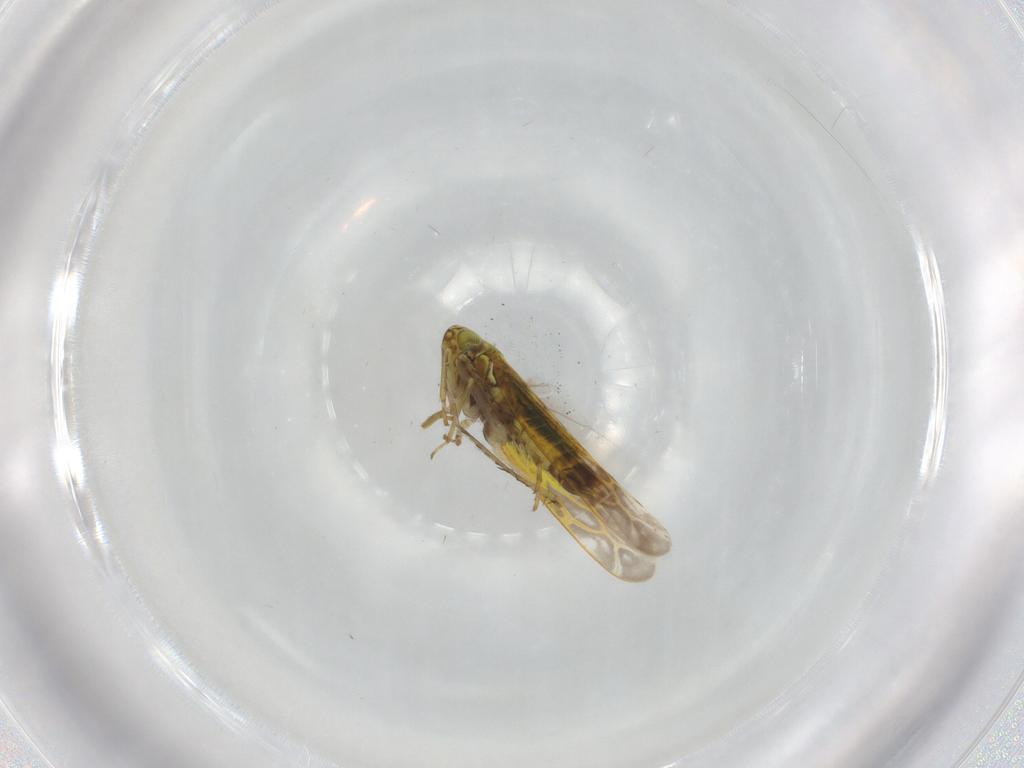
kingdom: Animalia
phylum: Arthropoda
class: Insecta
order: Hemiptera
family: Cicadellidae
